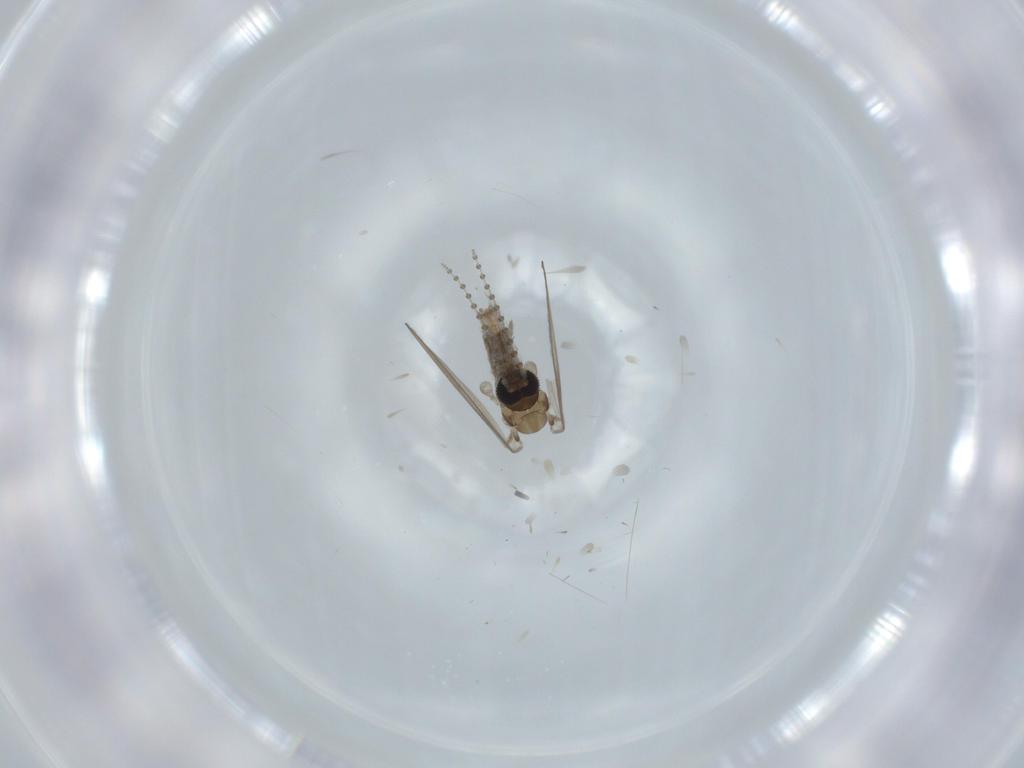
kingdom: Animalia
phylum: Arthropoda
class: Insecta
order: Diptera
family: Psychodidae
